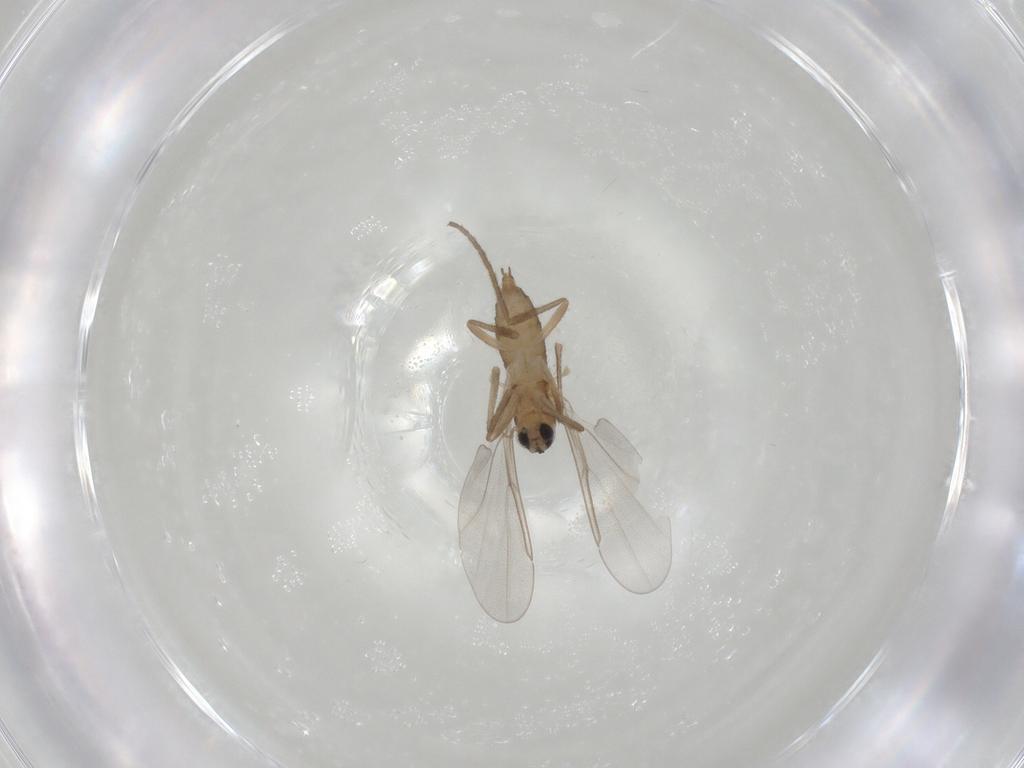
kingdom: Animalia
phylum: Arthropoda
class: Insecta
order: Diptera
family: Cecidomyiidae
